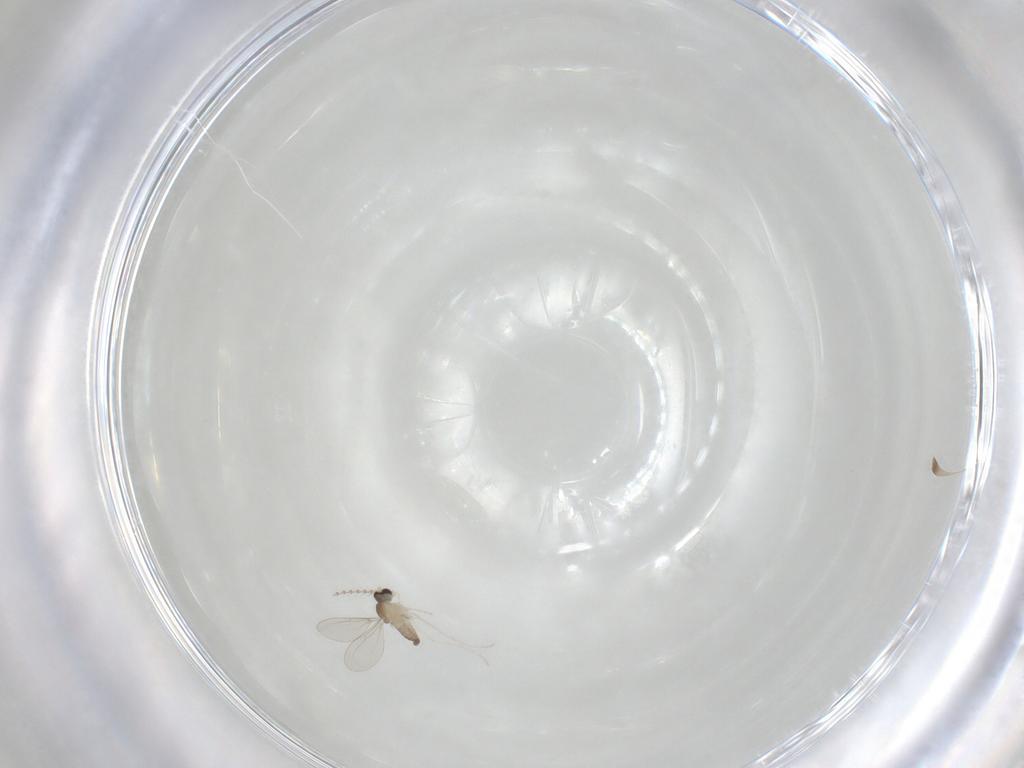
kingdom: Animalia
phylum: Arthropoda
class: Insecta
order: Diptera
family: Cecidomyiidae
